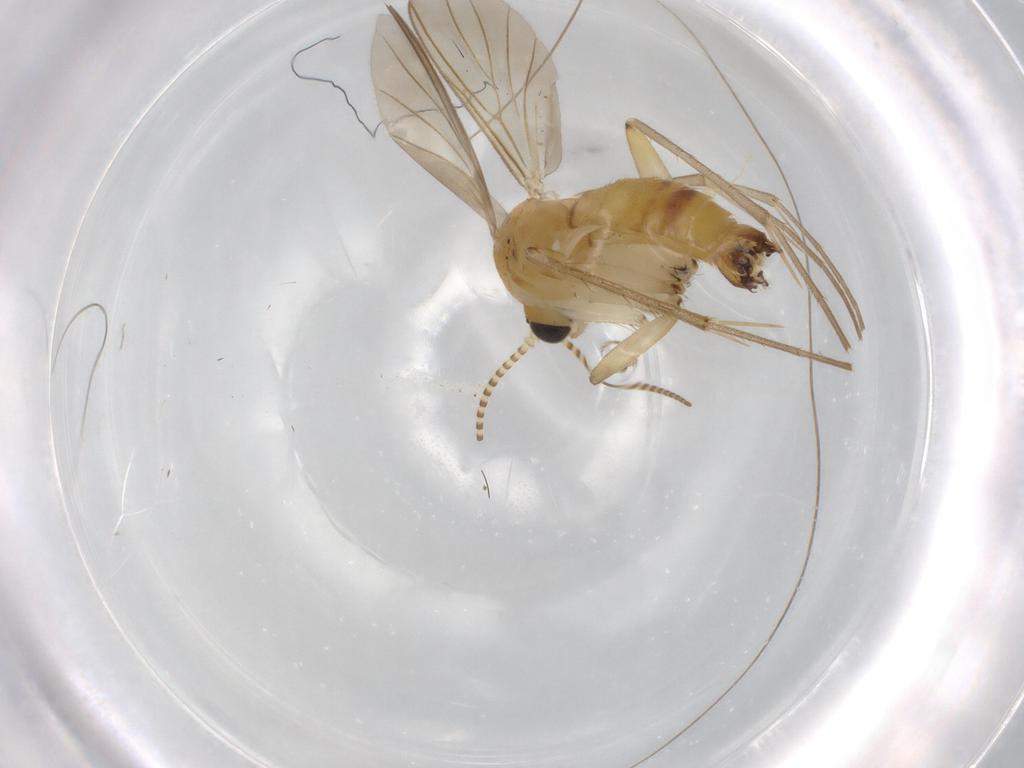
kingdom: Animalia
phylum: Arthropoda
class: Insecta
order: Diptera
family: Mycetophilidae
